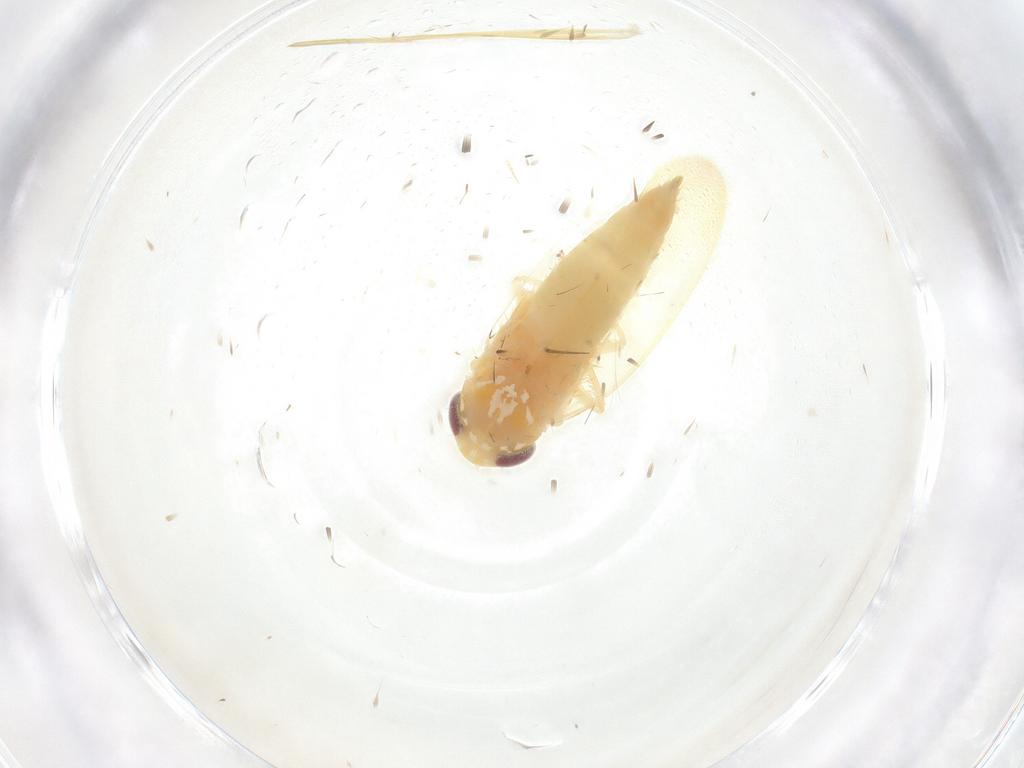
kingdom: Animalia
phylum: Arthropoda
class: Insecta
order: Hemiptera
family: Cicadellidae
